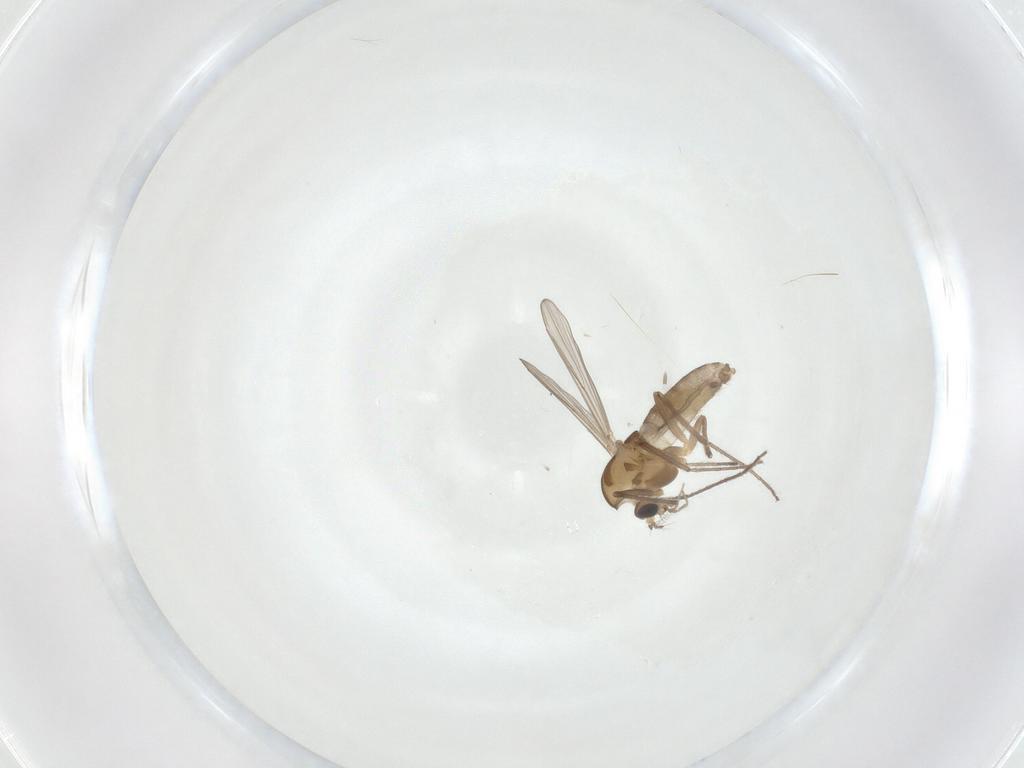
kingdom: Animalia
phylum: Arthropoda
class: Insecta
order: Diptera
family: Chironomidae
